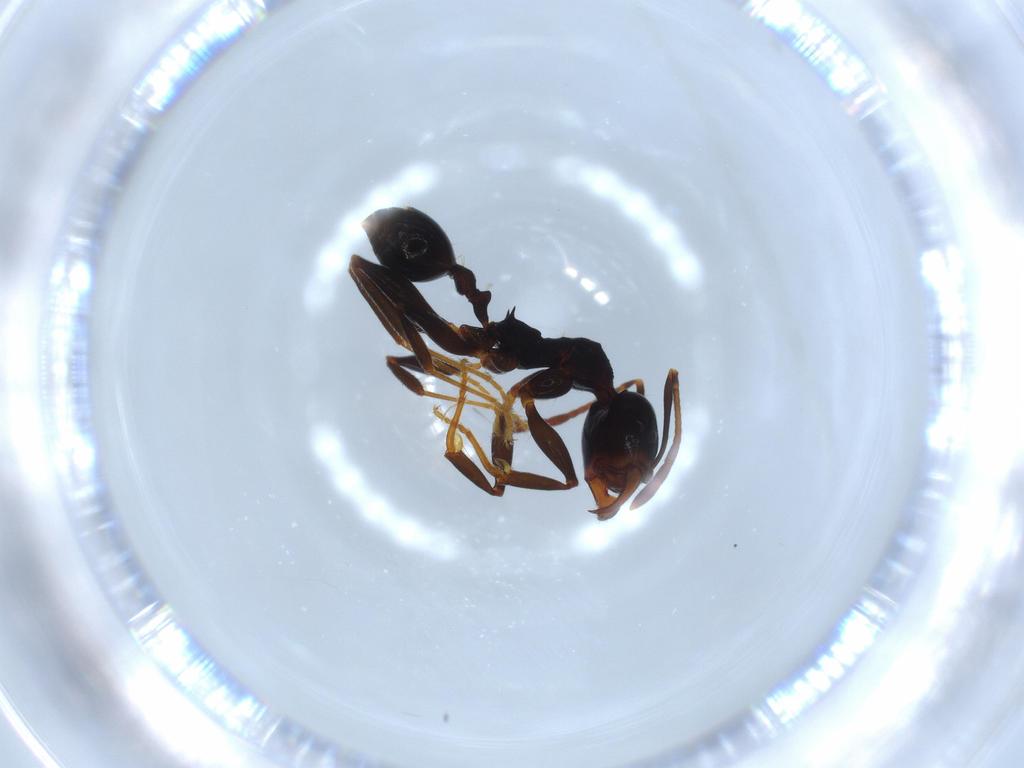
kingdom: Animalia
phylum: Arthropoda
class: Insecta
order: Hymenoptera
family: Formicidae
